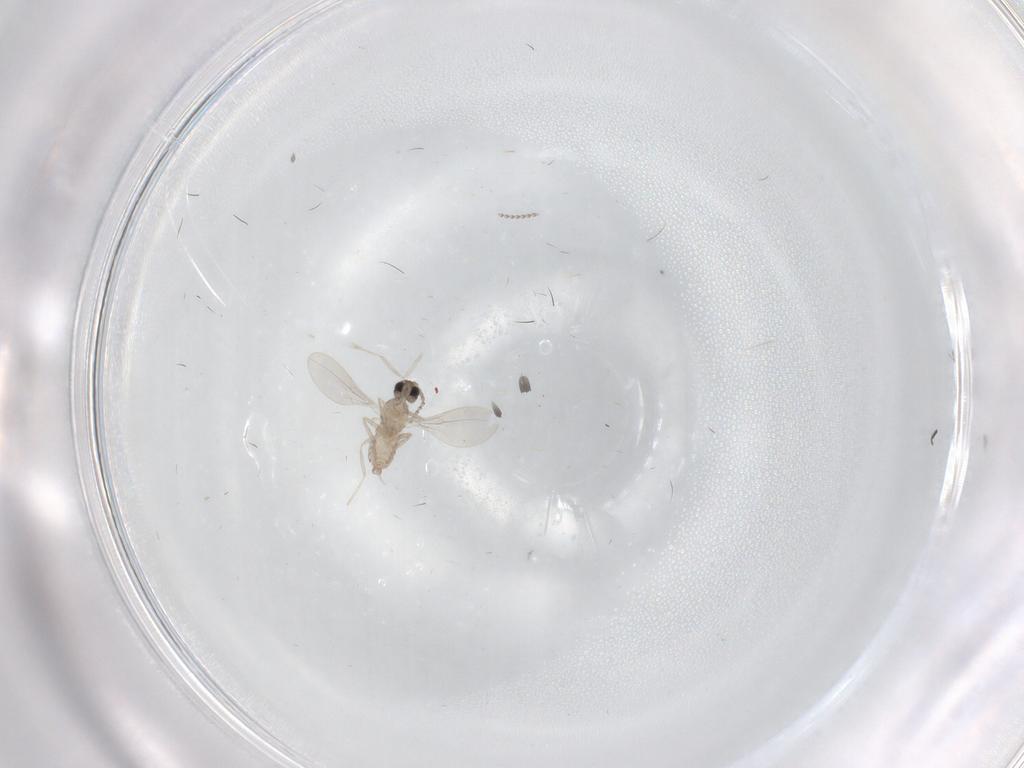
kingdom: Animalia
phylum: Arthropoda
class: Insecta
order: Diptera
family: Cecidomyiidae
